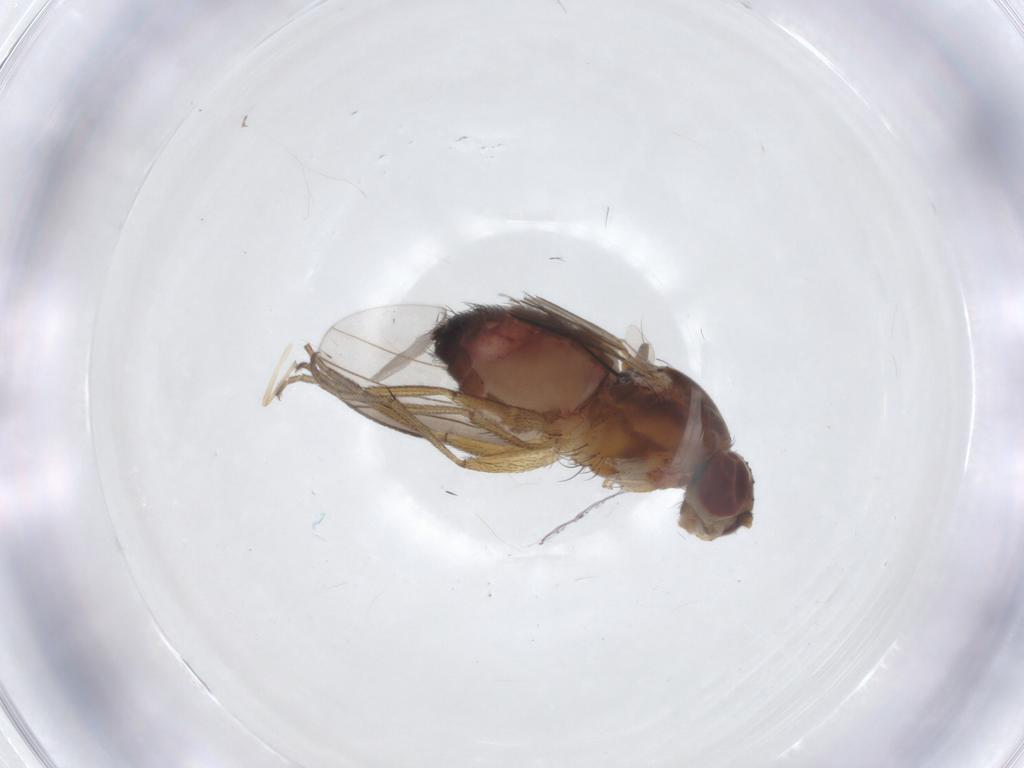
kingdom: Animalia
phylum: Arthropoda
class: Insecta
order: Diptera
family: Heleomyzidae
